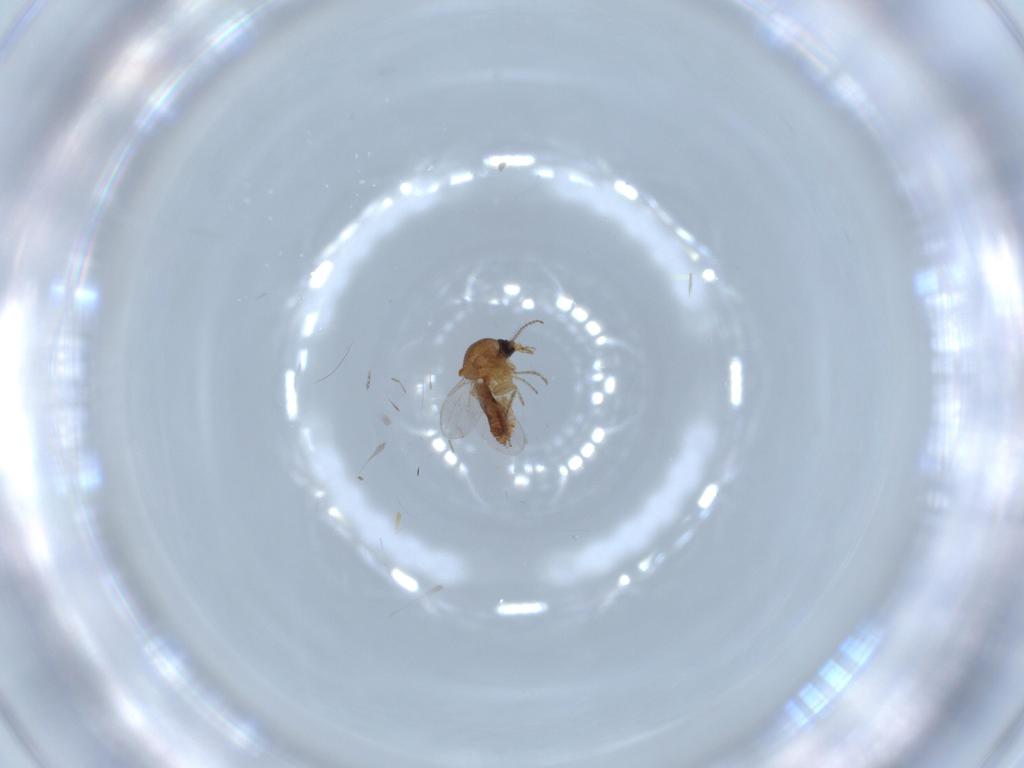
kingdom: Animalia
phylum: Arthropoda
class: Insecta
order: Diptera
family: Ceratopogonidae
